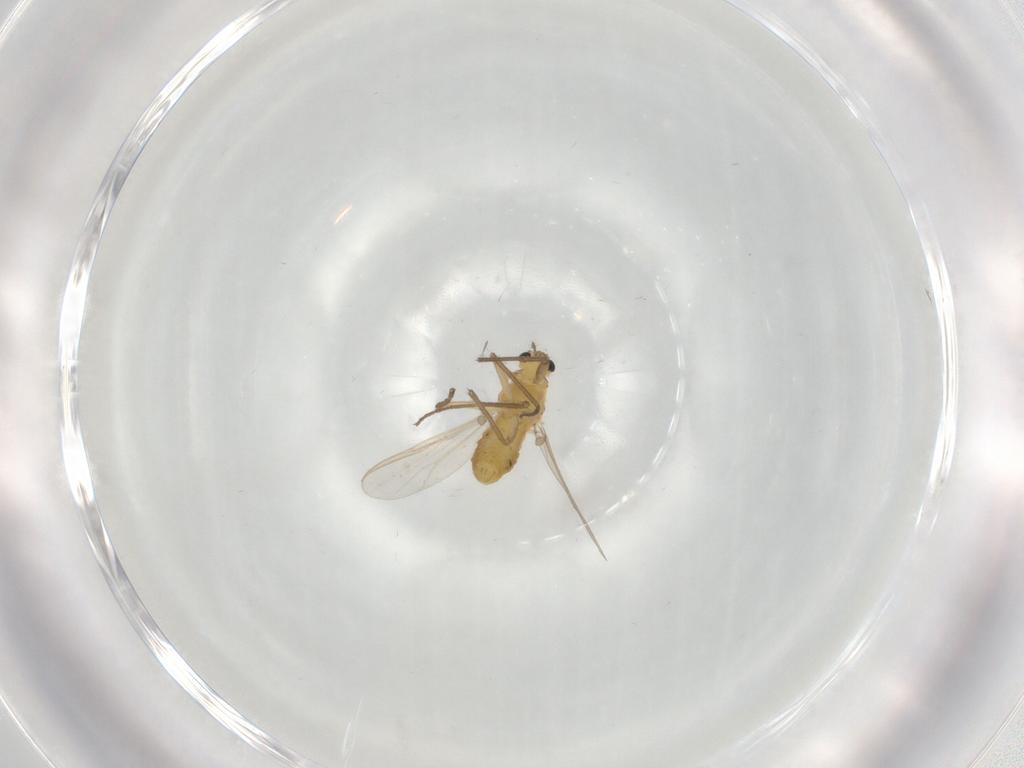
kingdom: Animalia
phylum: Arthropoda
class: Insecta
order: Diptera
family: Chironomidae
